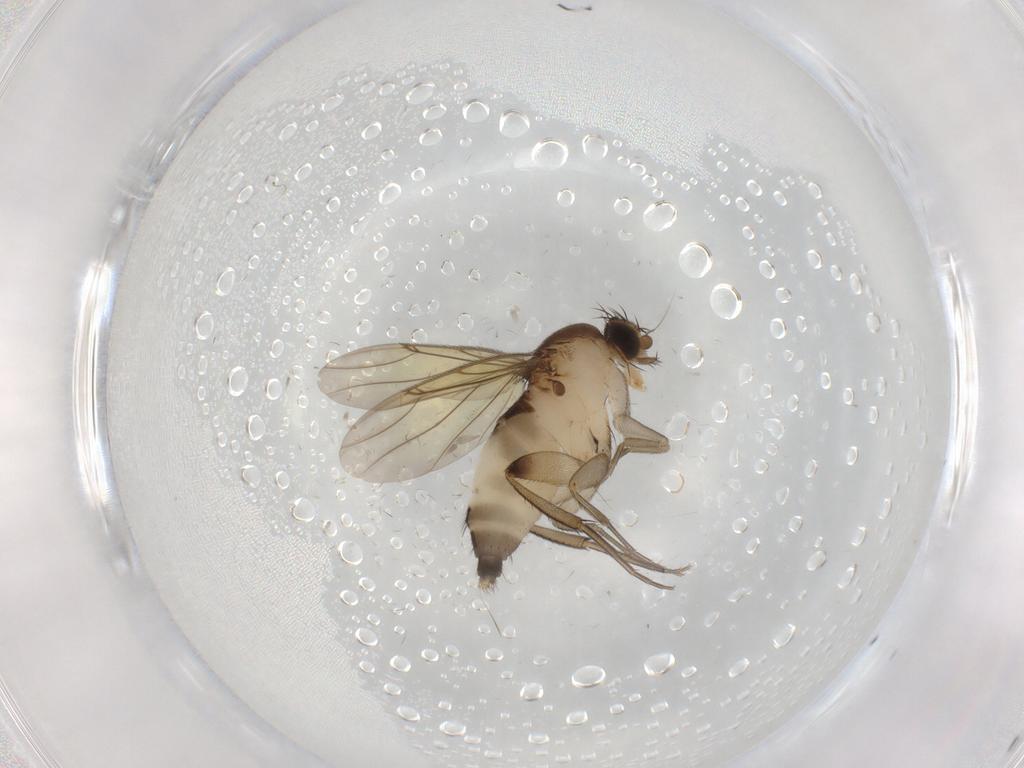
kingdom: Animalia
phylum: Arthropoda
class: Insecta
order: Diptera
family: Phoridae
